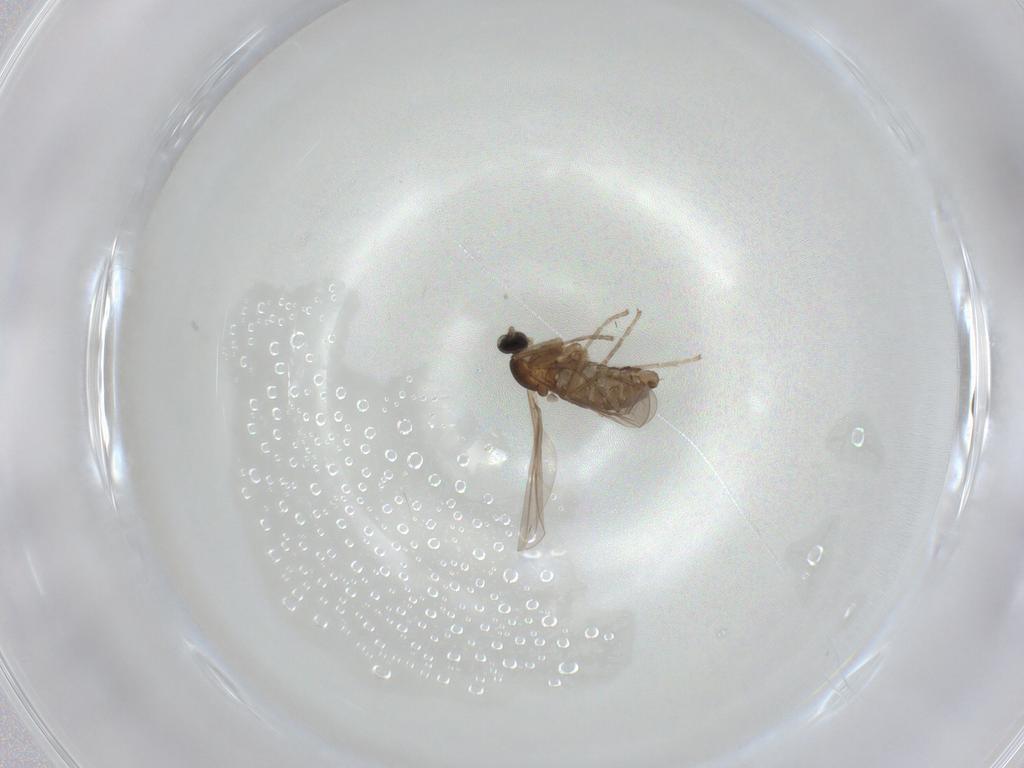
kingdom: Animalia
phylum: Arthropoda
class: Insecta
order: Diptera
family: Cecidomyiidae
